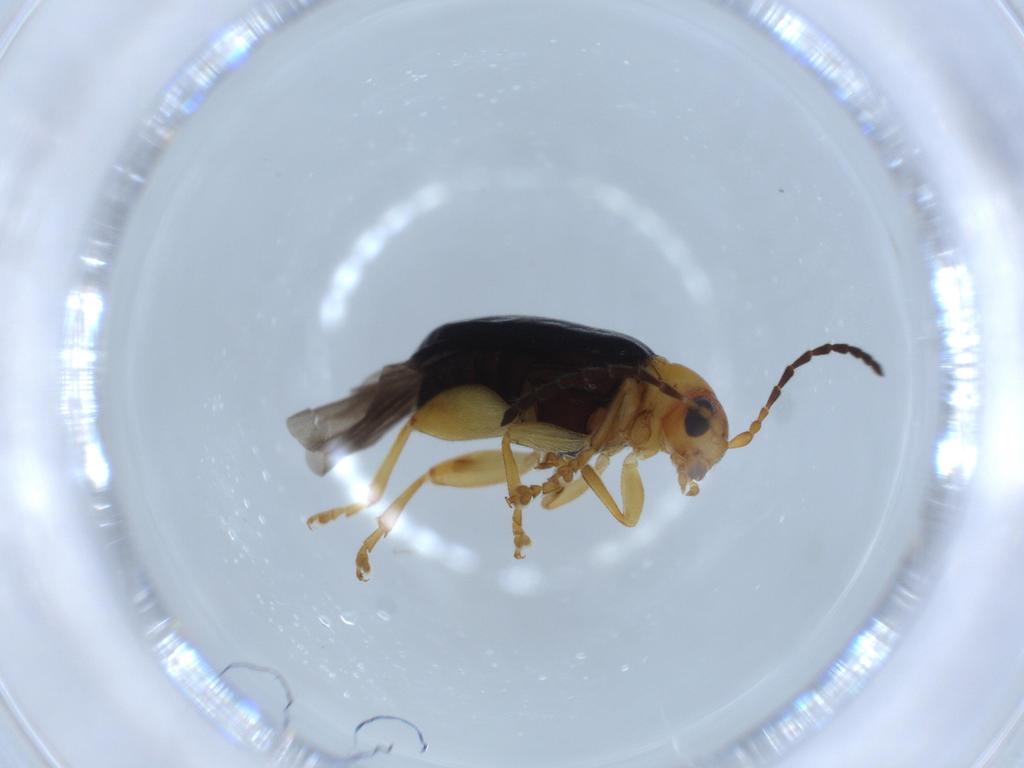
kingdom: Animalia
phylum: Arthropoda
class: Insecta
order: Coleoptera
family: Chrysomelidae
